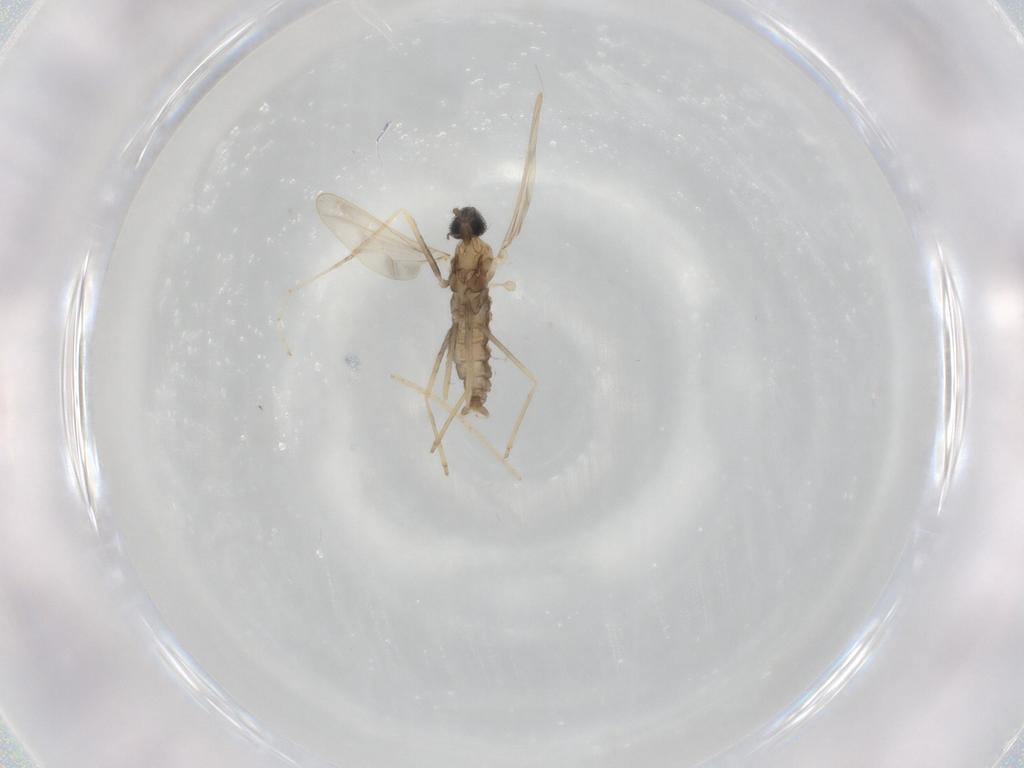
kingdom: Animalia
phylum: Arthropoda
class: Insecta
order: Diptera
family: Cecidomyiidae
